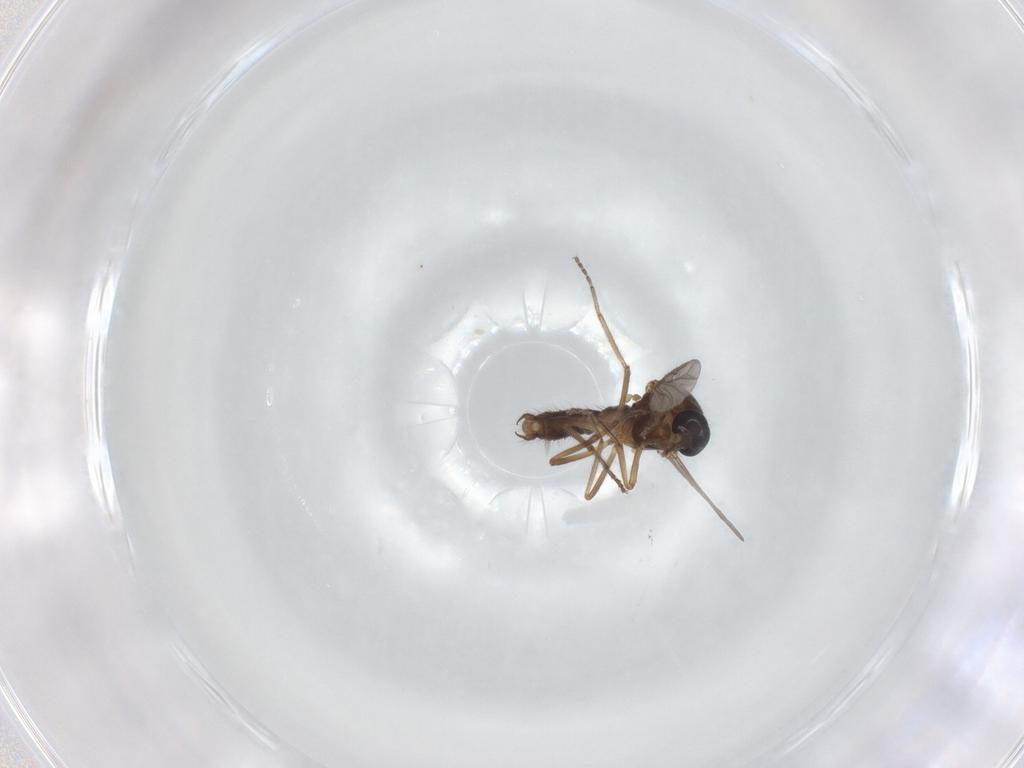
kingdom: Animalia
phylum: Arthropoda
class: Insecta
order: Diptera
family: Ceratopogonidae
